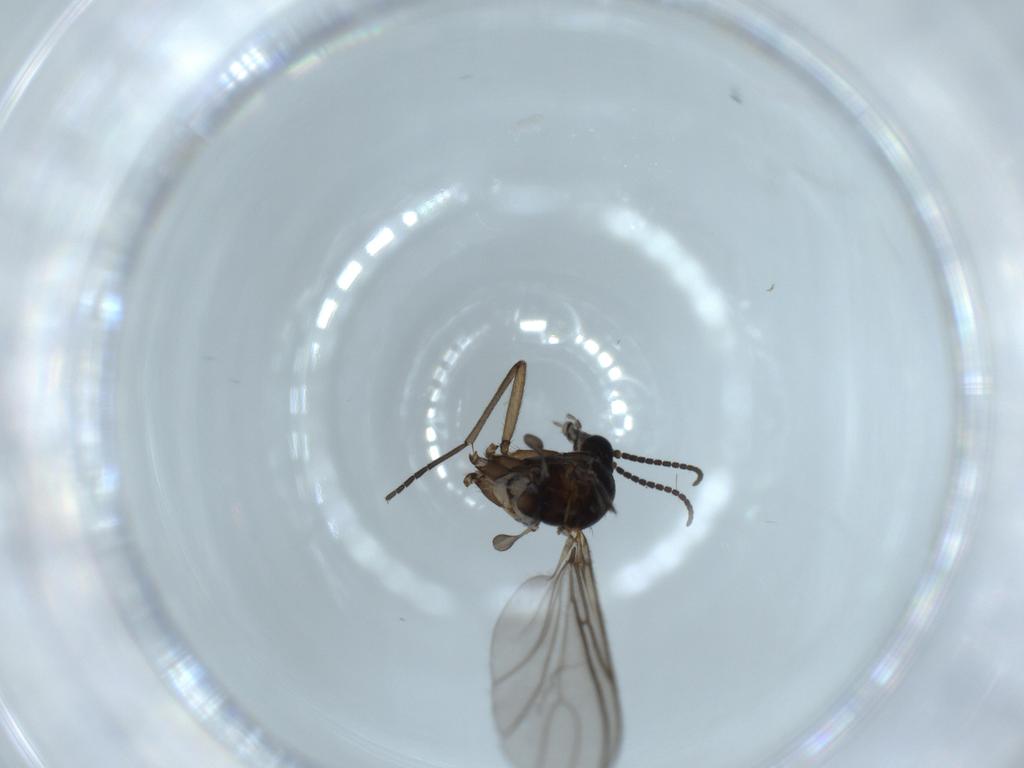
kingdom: Animalia
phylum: Arthropoda
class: Insecta
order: Diptera
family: Sciaridae
